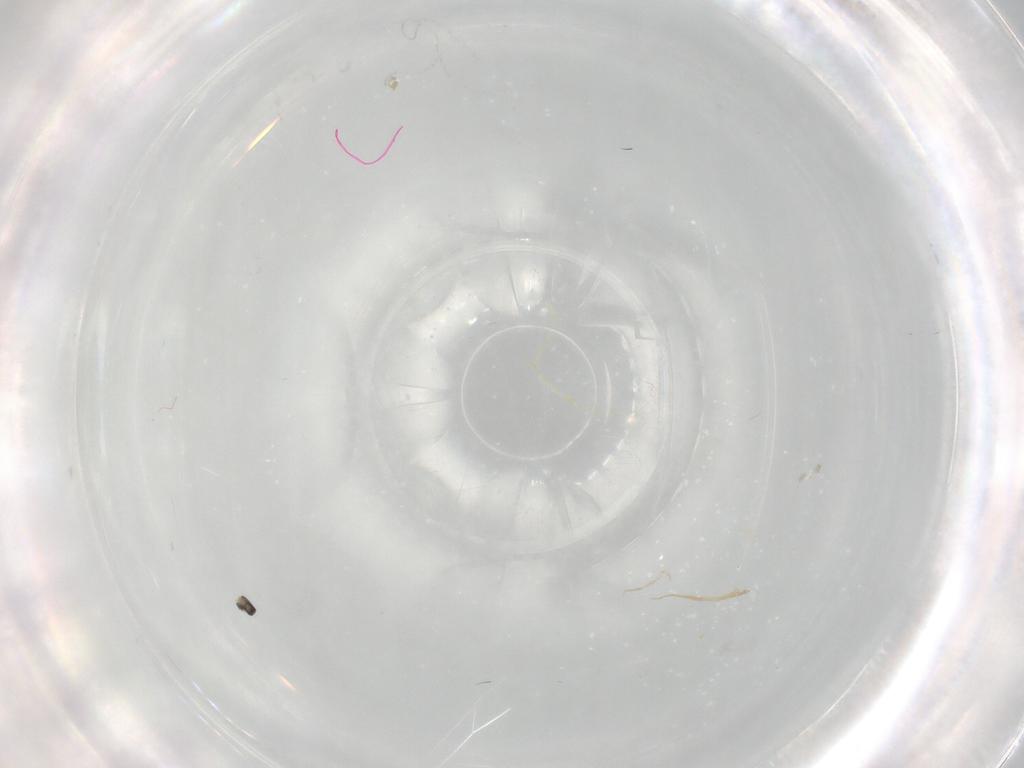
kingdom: Animalia
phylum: Arthropoda
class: Insecta
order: Diptera
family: Cecidomyiidae
